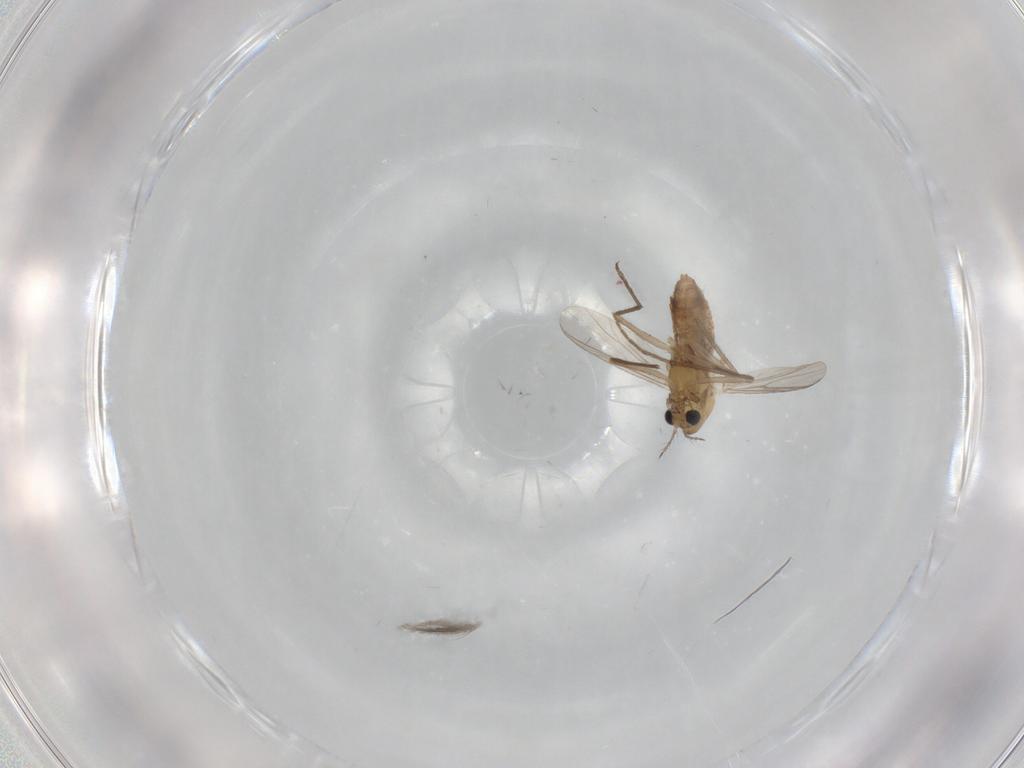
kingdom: Animalia
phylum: Arthropoda
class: Insecta
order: Diptera
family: Chironomidae
